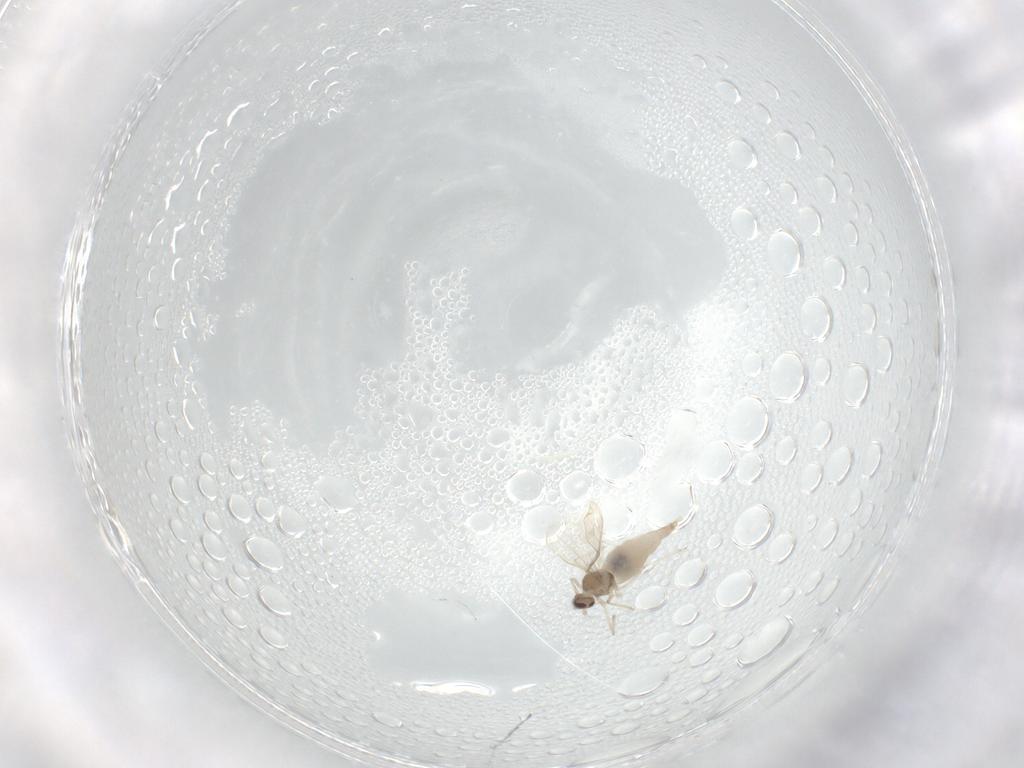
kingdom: Animalia
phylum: Arthropoda
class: Insecta
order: Diptera
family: Cecidomyiidae
